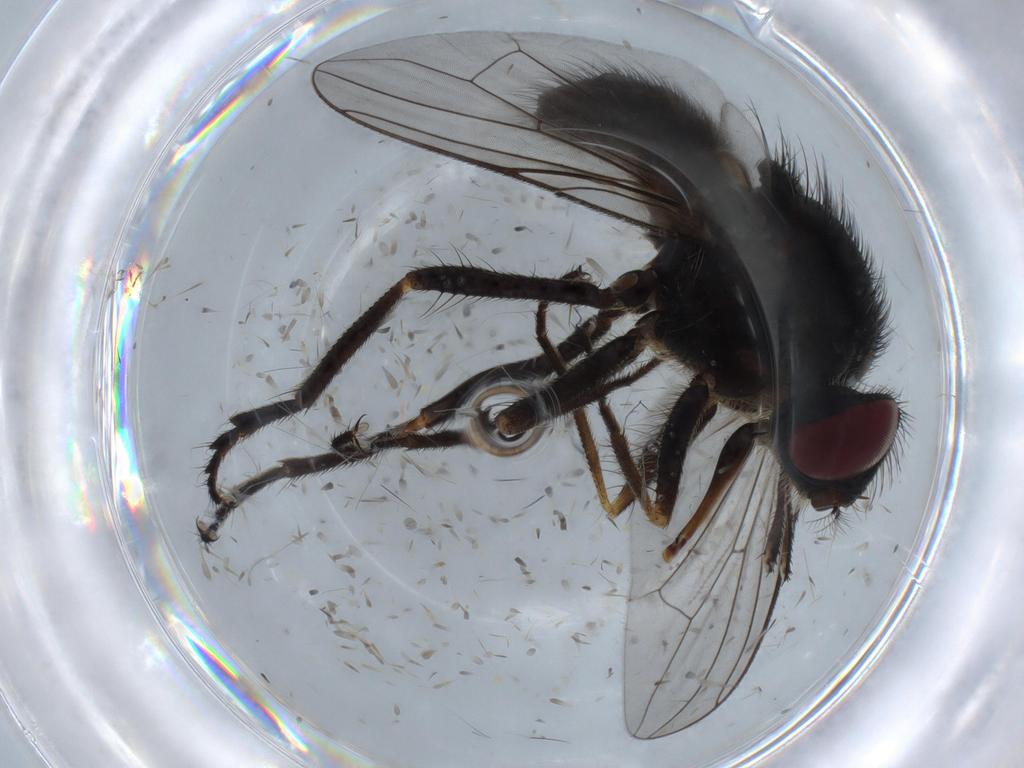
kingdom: Animalia
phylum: Arthropoda
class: Insecta
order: Diptera
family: Limoniidae
